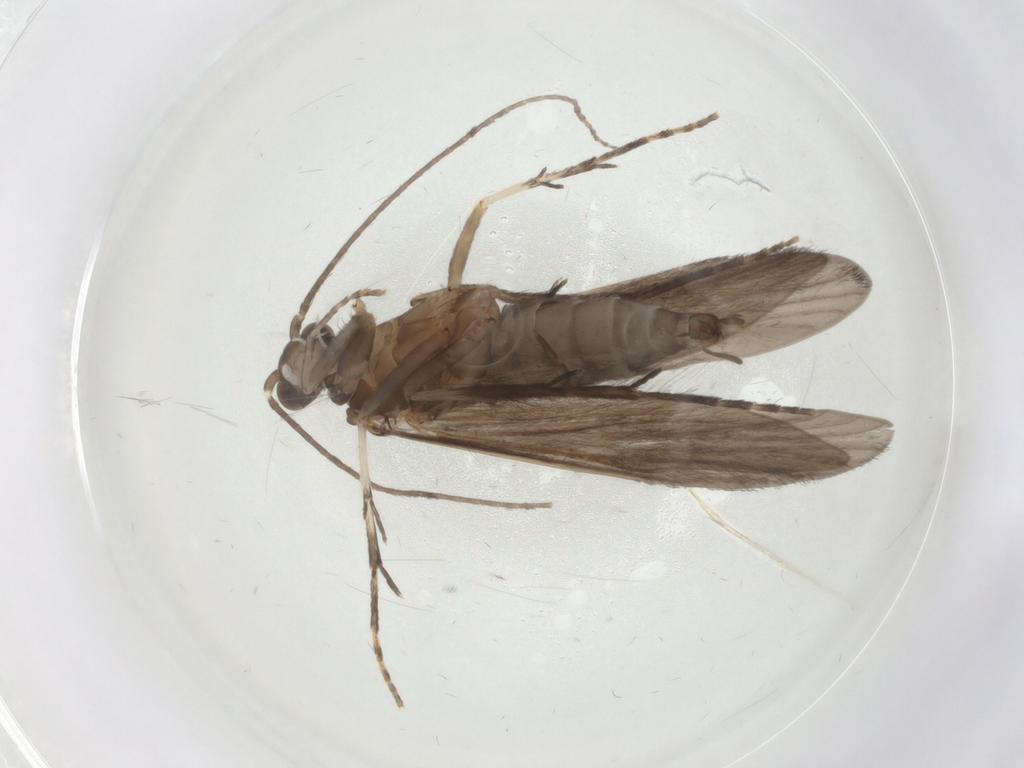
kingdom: Animalia
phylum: Arthropoda
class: Insecta
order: Trichoptera
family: Xiphocentronidae
